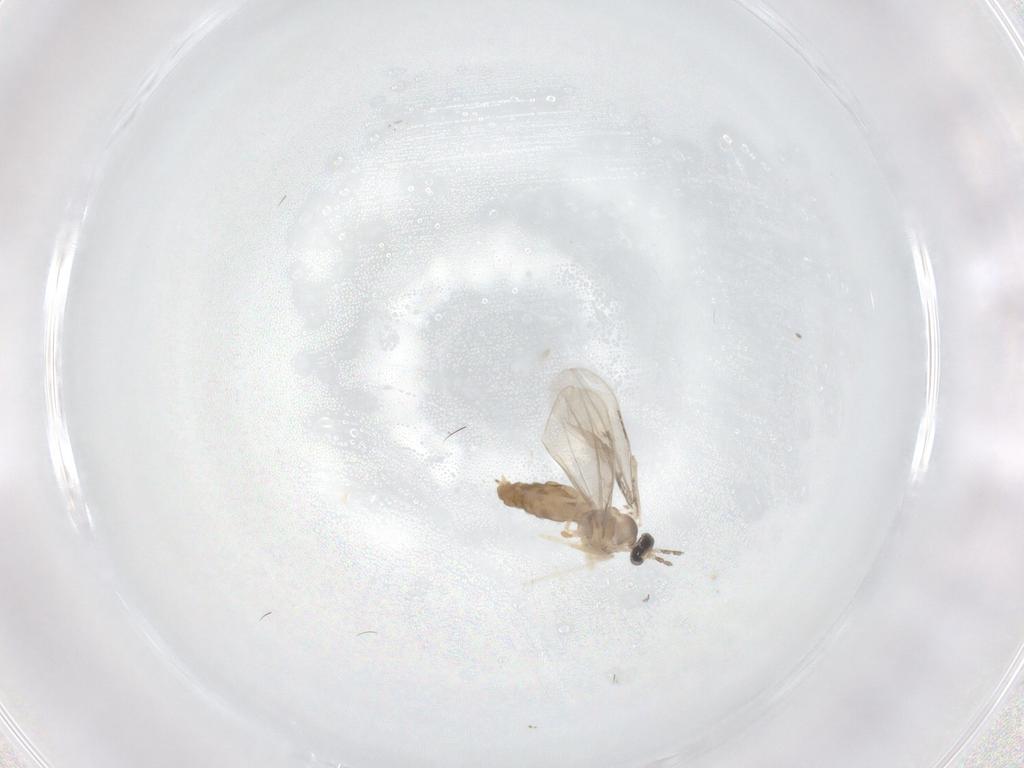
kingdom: Animalia
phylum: Arthropoda
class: Insecta
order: Diptera
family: Cecidomyiidae
